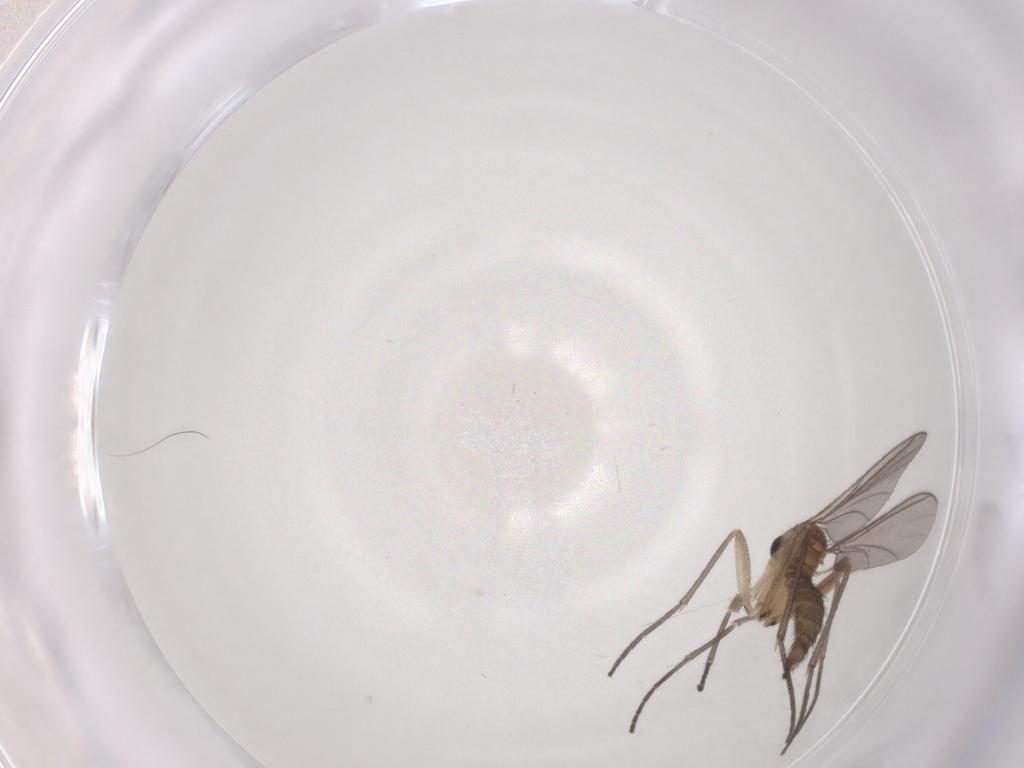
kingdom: Animalia
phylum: Arthropoda
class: Insecta
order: Diptera
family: Sciaridae
